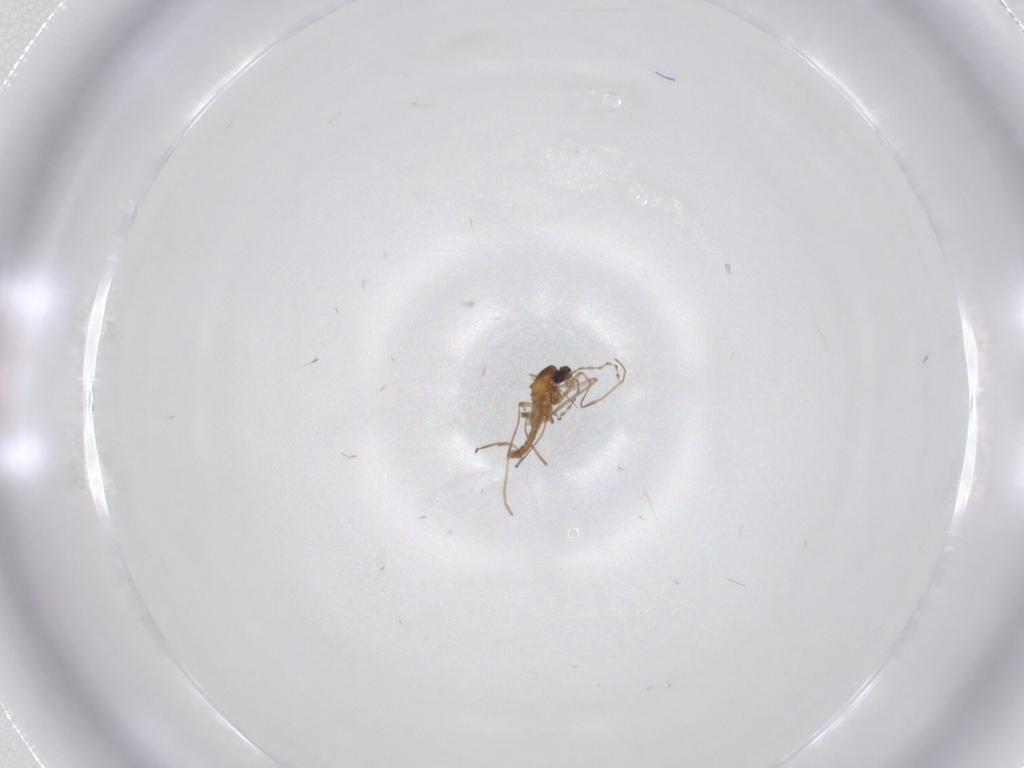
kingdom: Animalia
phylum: Arthropoda
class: Insecta
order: Diptera
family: Cecidomyiidae
